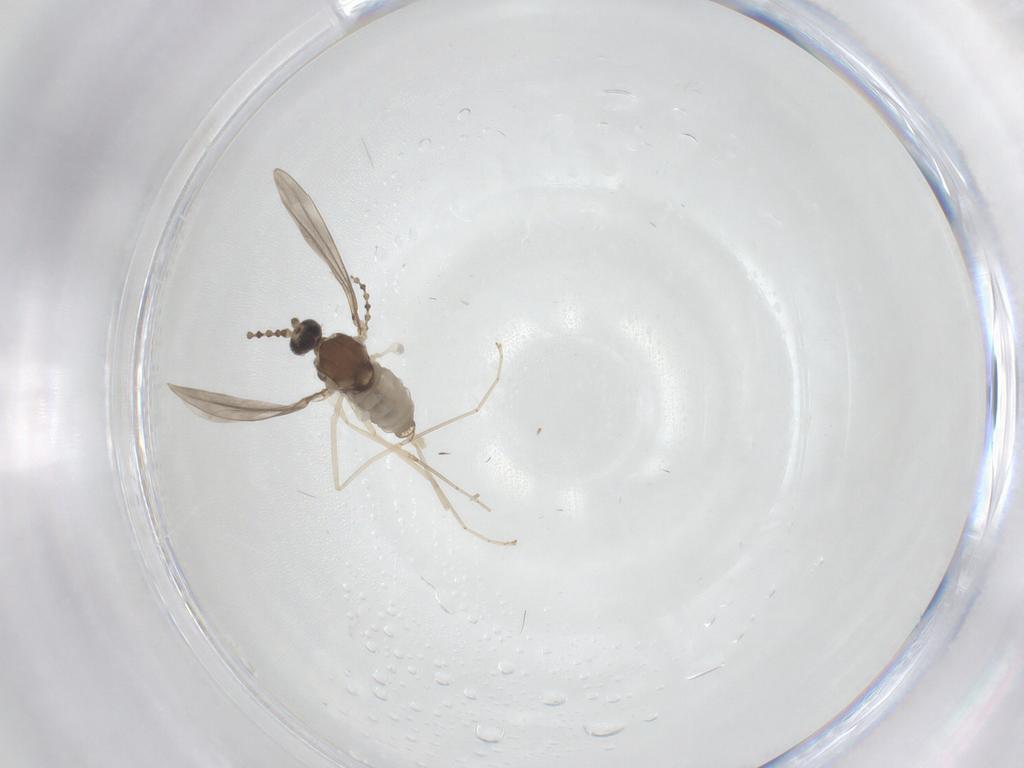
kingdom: Animalia
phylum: Arthropoda
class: Insecta
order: Diptera
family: Cecidomyiidae
